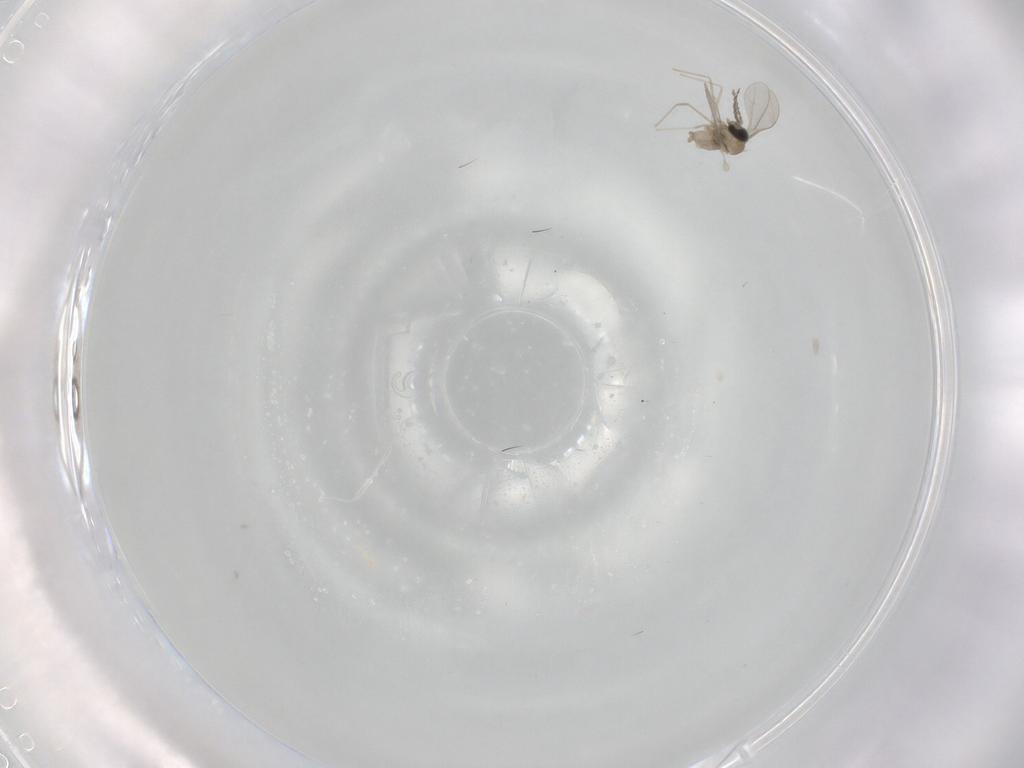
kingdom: Animalia
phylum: Arthropoda
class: Insecta
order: Diptera
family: Cecidomyiidae
